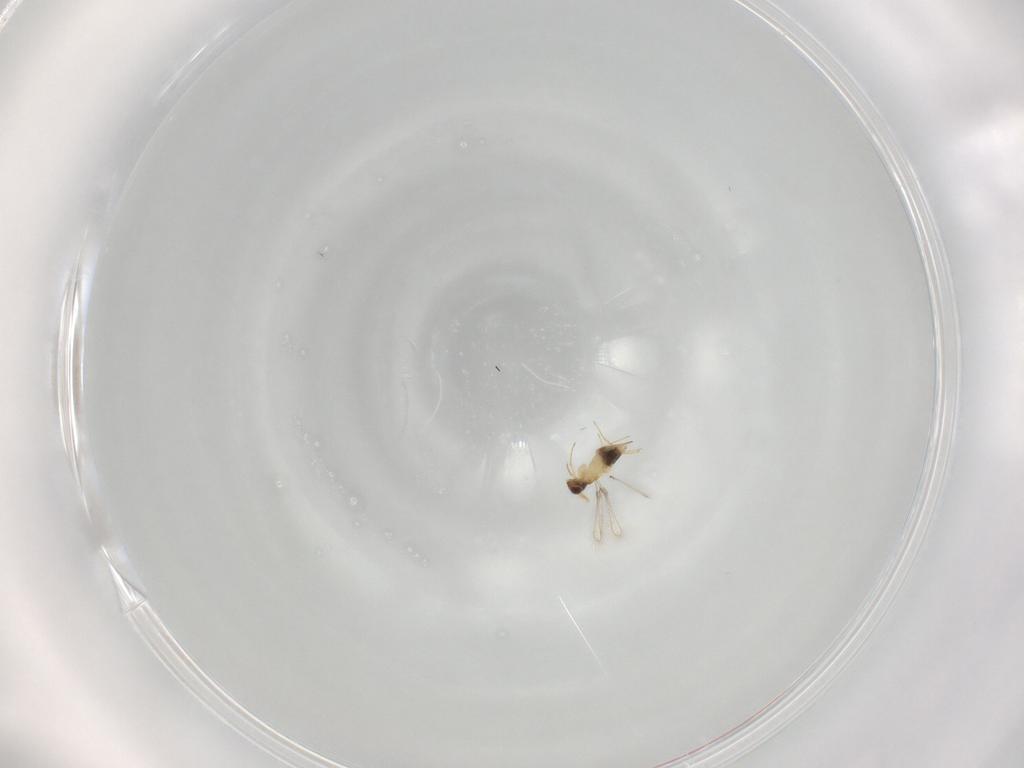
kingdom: Animalia
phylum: Arthropoda
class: Insecta
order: Hymenoptera
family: Mymaridae
